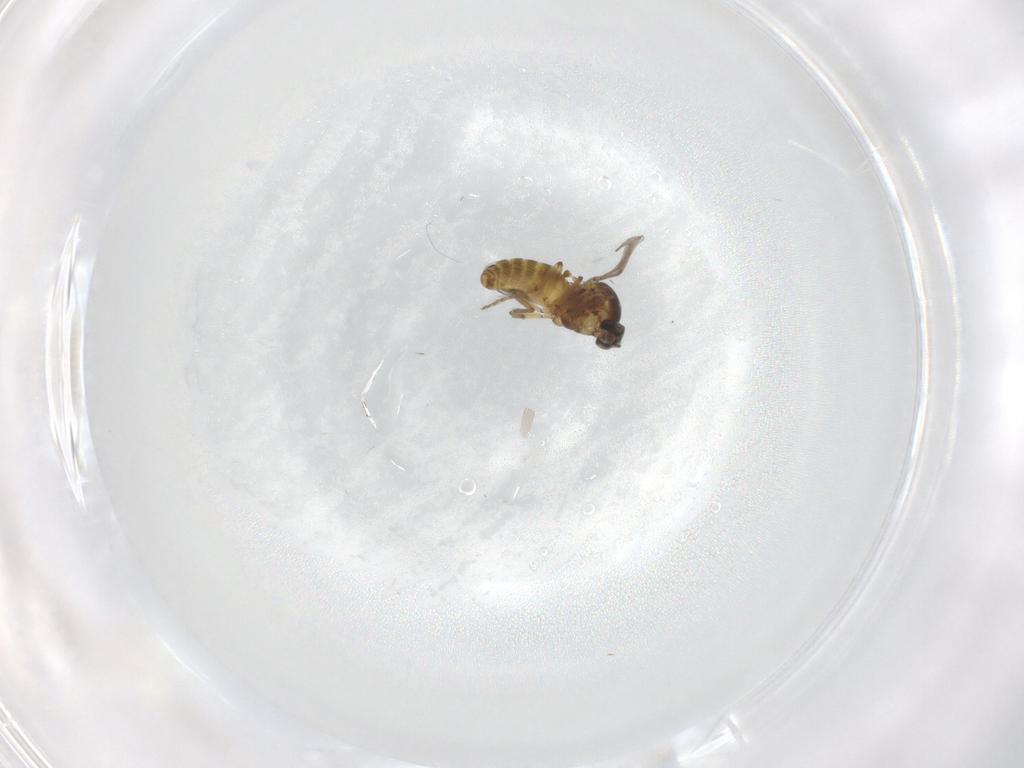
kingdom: Animalia
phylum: Arthropoda
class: Insecta
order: Diptera
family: Chironomidae
